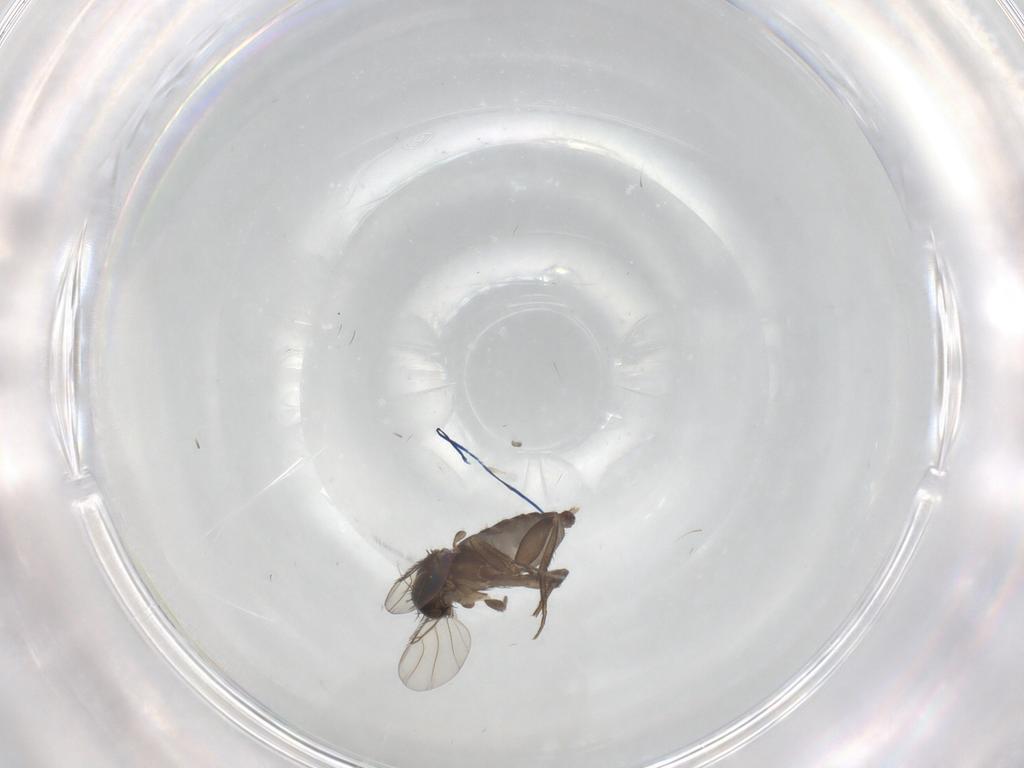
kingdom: Animalia
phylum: Arthropoda
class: Insecta
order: Diptera
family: Phoridae
